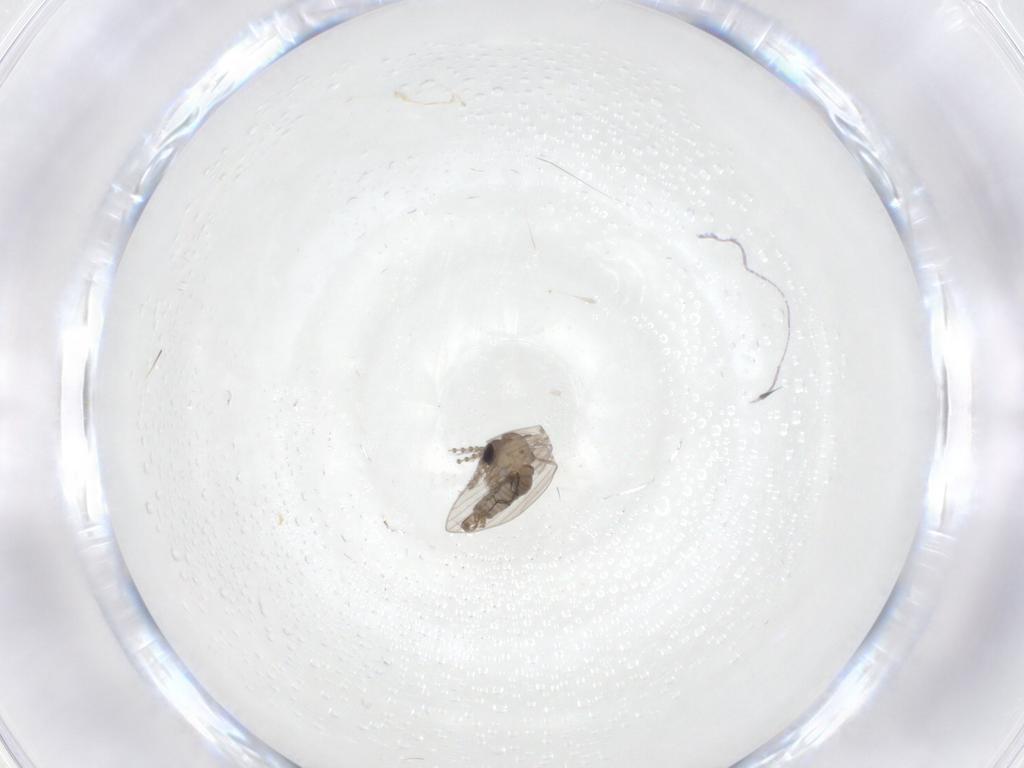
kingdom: Animalia
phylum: Arthropoda
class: Insecta
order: Diptera
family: Psychodidae
